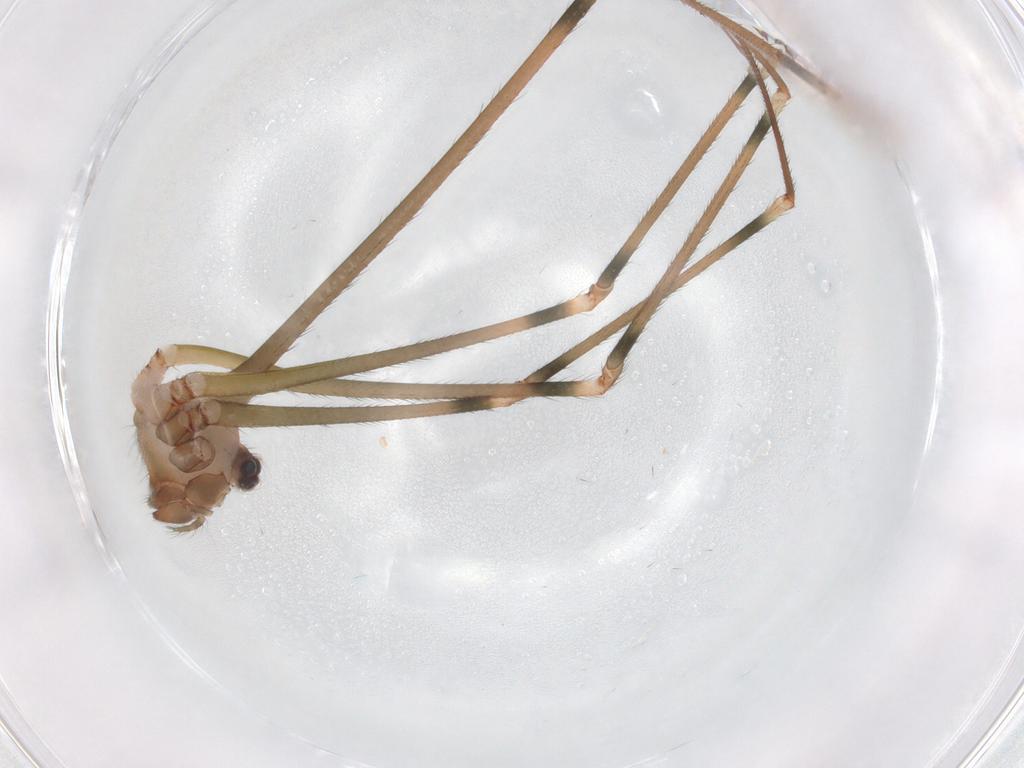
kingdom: Animalia
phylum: Arthropoda
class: Arachnida
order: Araneae
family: Pholcidae
